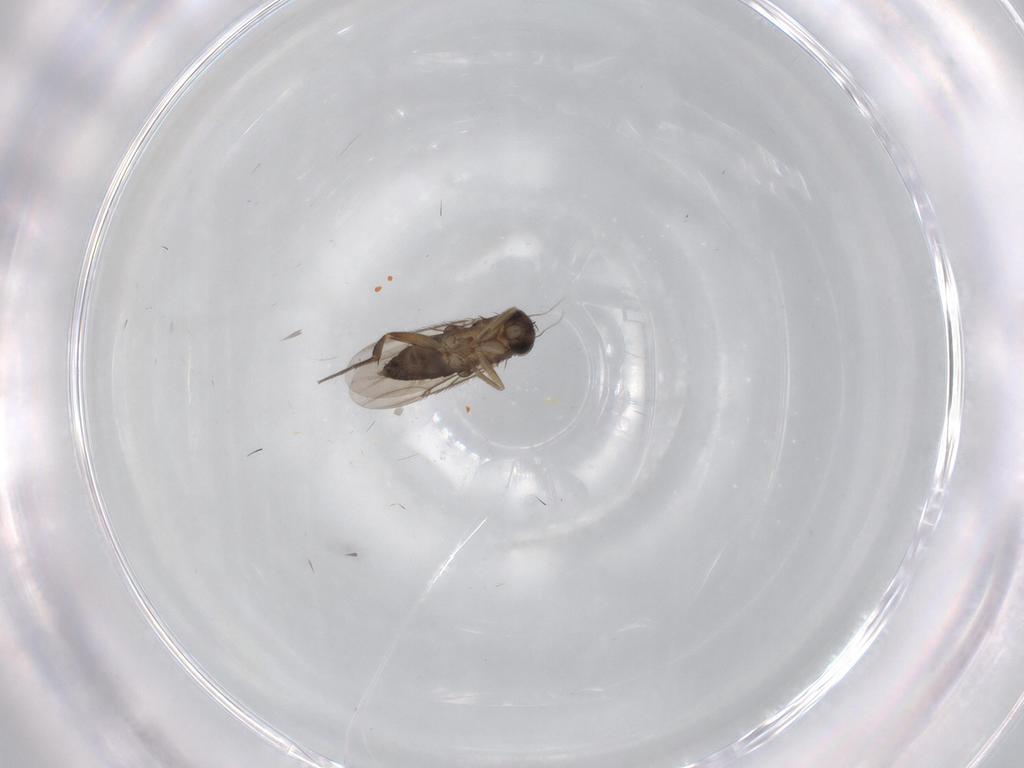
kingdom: Animalia
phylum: Arthropoda
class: Insecta
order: Diptera
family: Phoridae
